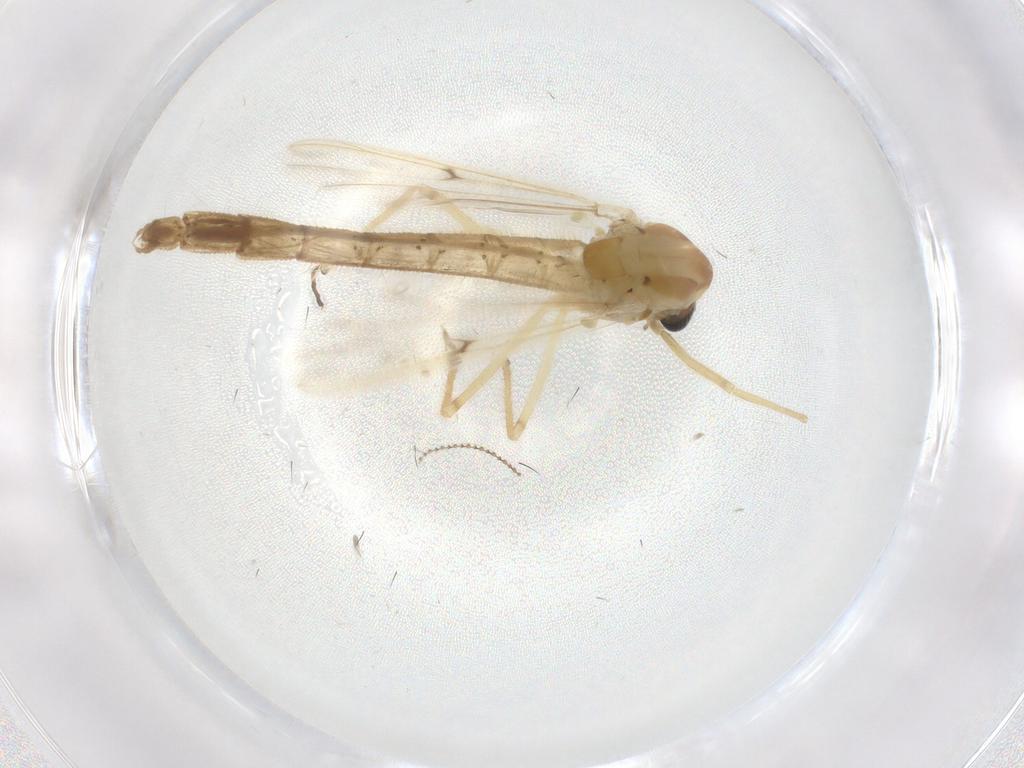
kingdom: Animalia
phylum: Arthropoda
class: Insecta
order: Diptera
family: Chironomidae
